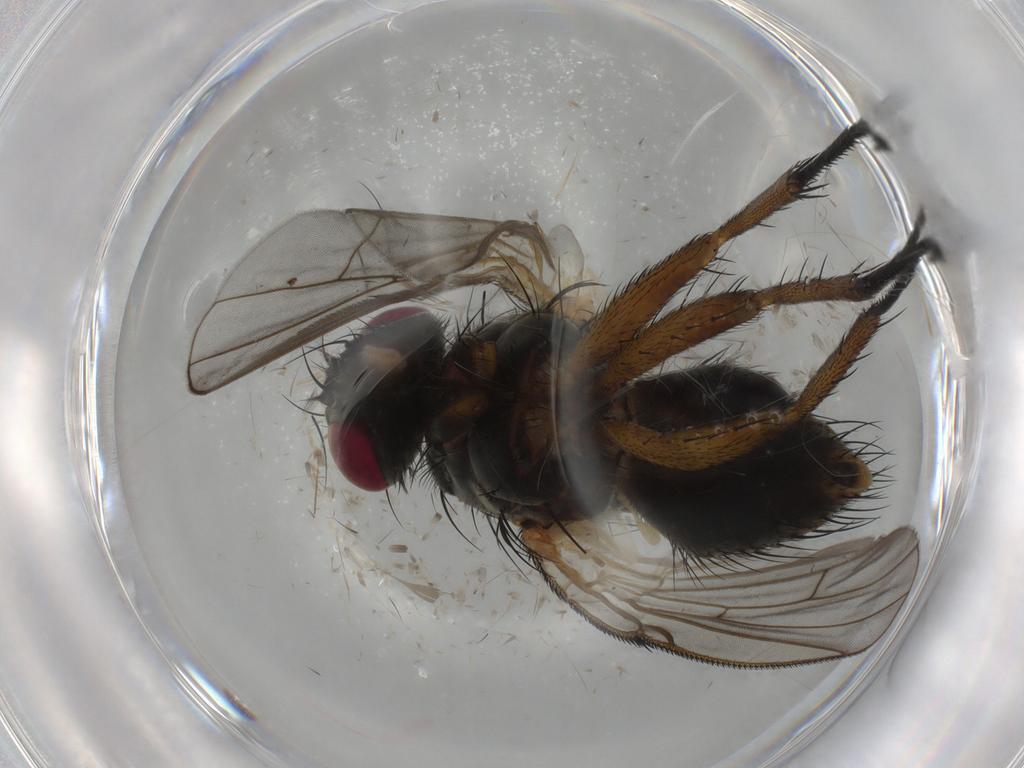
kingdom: Animalia
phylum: Arthropoda
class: Insecta
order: Diptera
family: Muscidae
